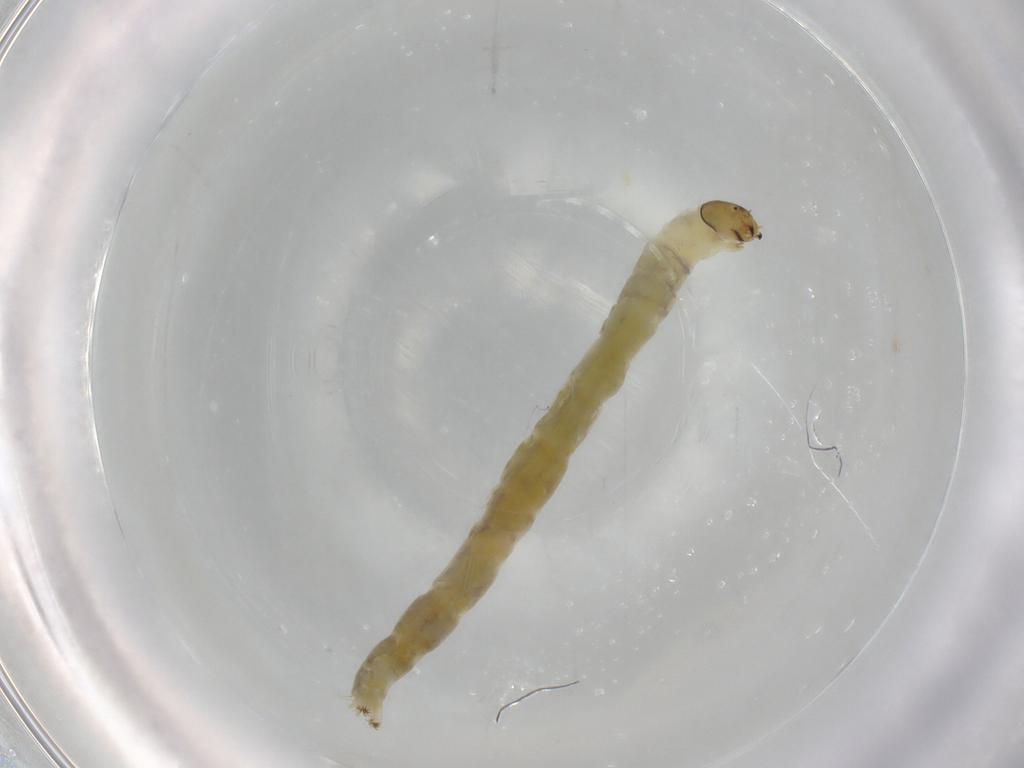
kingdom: Animalia
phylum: Arthropoda
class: Insecta
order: Diptera
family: Chironomidae
